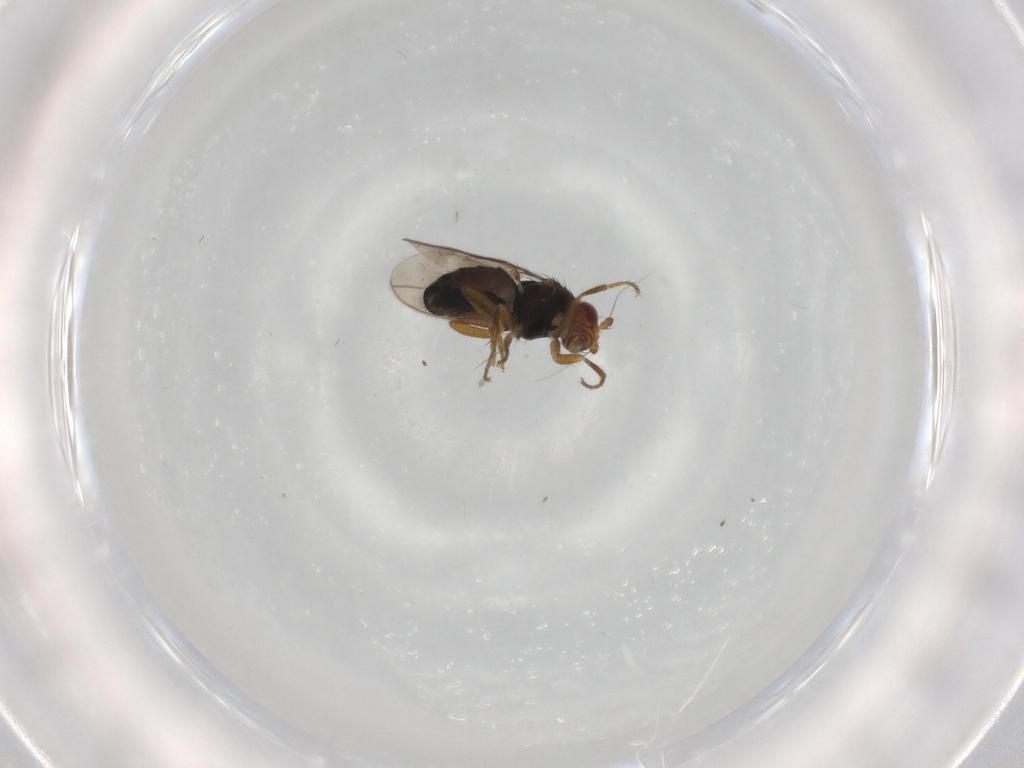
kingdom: Animalia
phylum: Arthropoda
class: Insecta
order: Diptera
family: Sphaeroceridae
